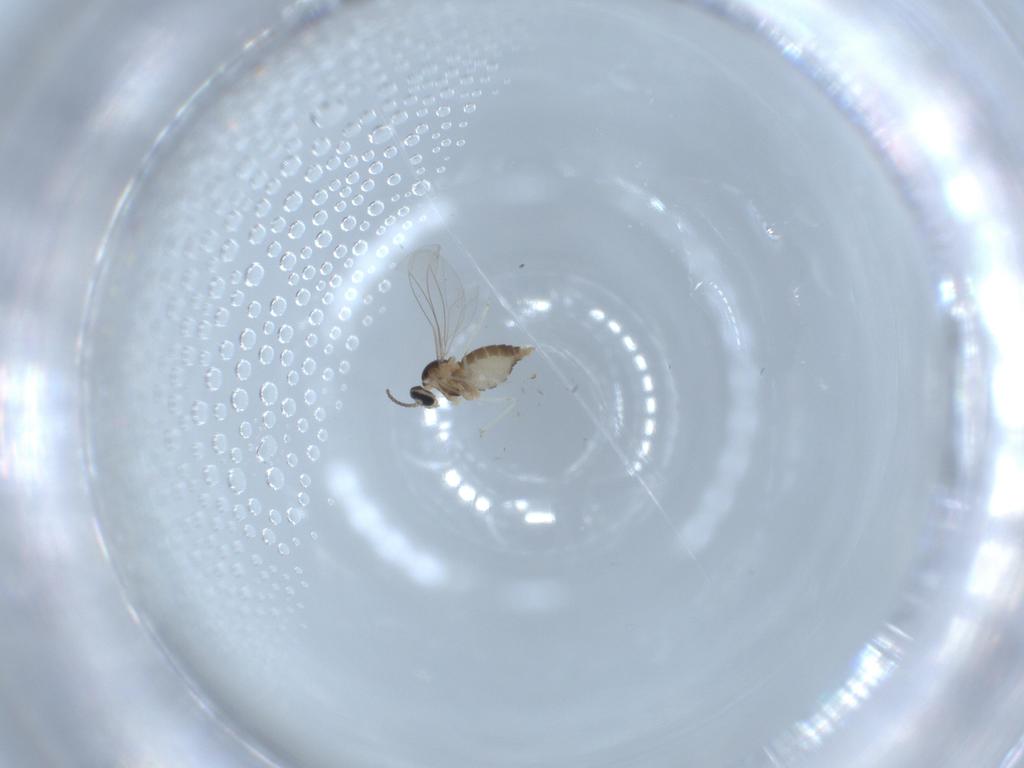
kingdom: Animalia
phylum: Arthropoda
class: Insecta
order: Diptera
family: Cecidomyiidae
